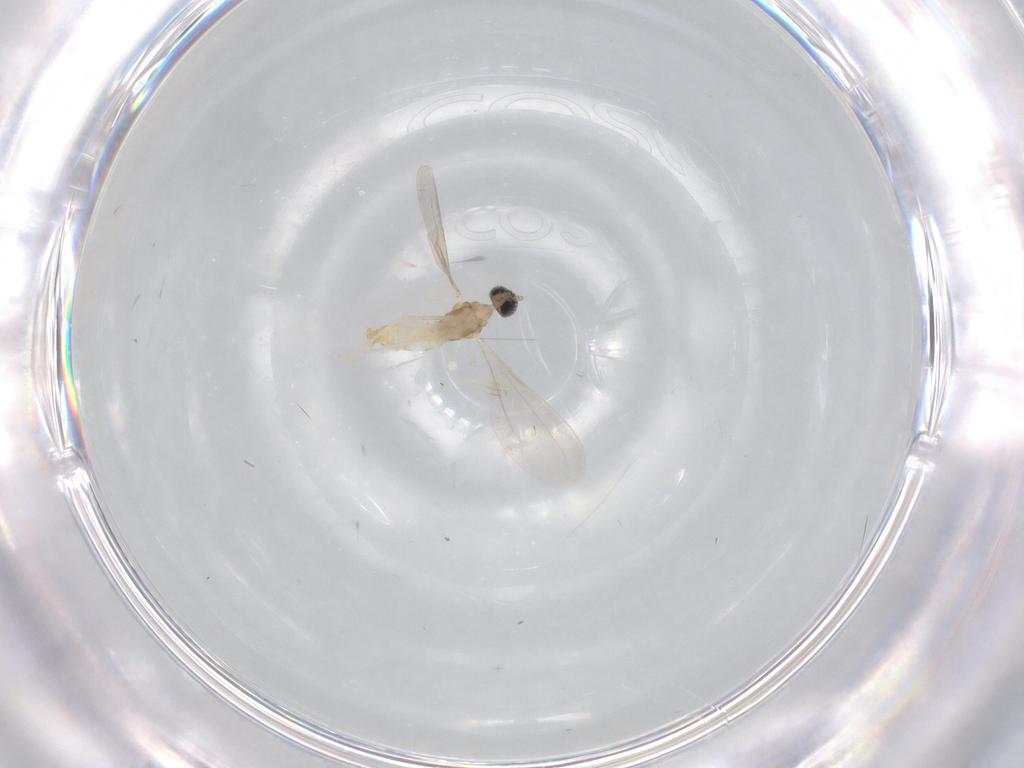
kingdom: Animalia
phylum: Arthropoda
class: Insecta
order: Diptera
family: Cecidomyiidae
